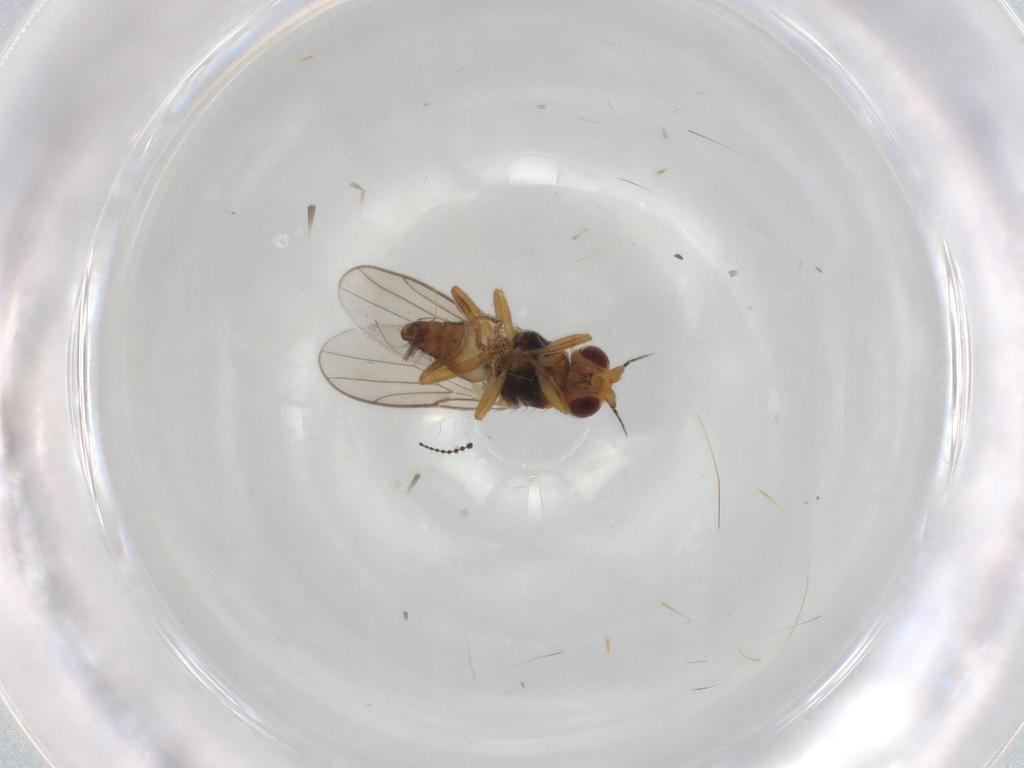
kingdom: Animalia
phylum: Arthropoda
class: Insecta
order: Diptera
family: Chloropidae
